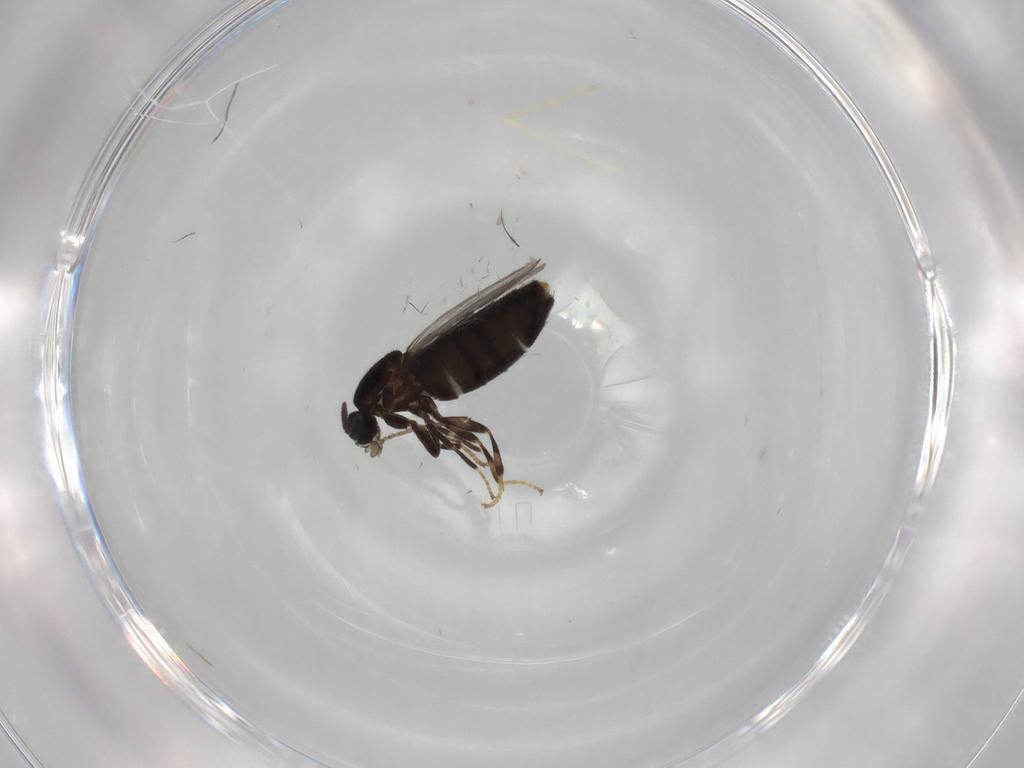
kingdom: Animalia
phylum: Arthropoda
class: Insecta
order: Diptera
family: Scatopsidae
